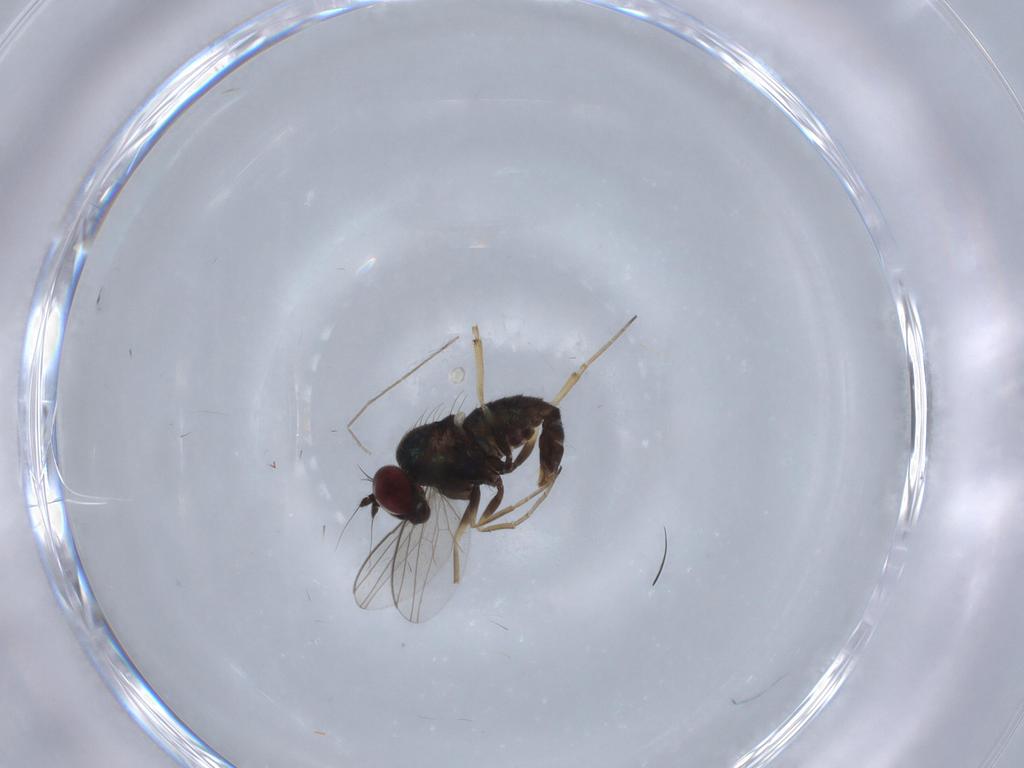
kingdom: Animalia
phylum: Arthropoda
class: Insecta
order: Diptera
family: Dolichopodidae
